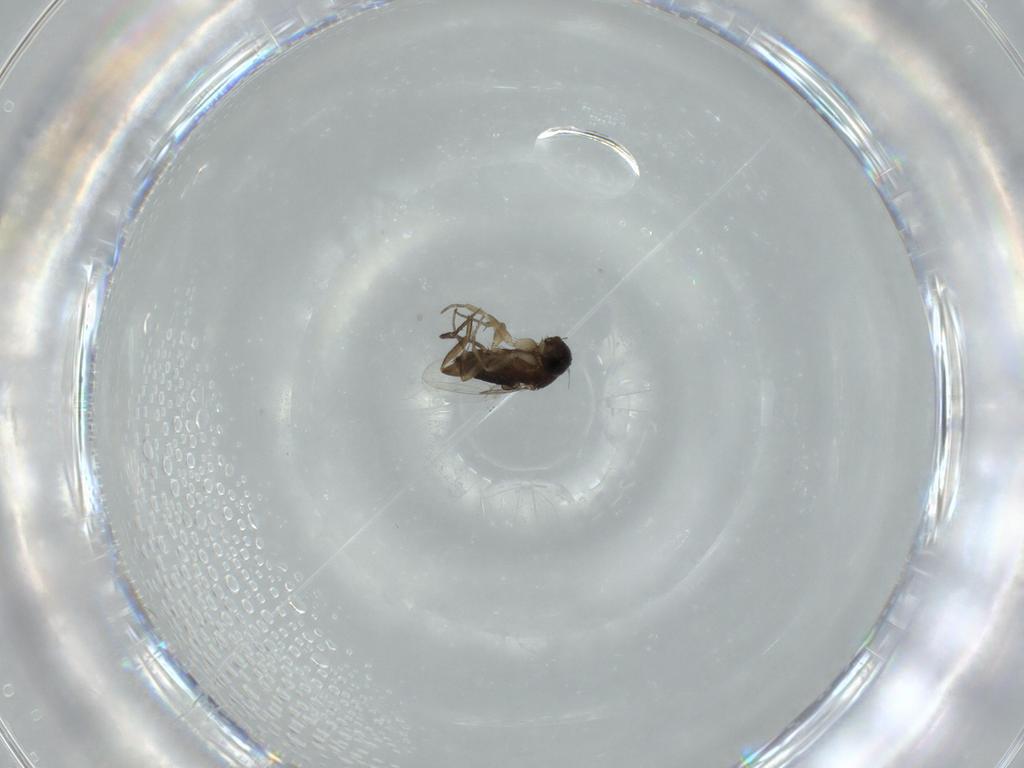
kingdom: Animalia
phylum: Arthropoda
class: Insecta
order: Diptera
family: Phoridae
